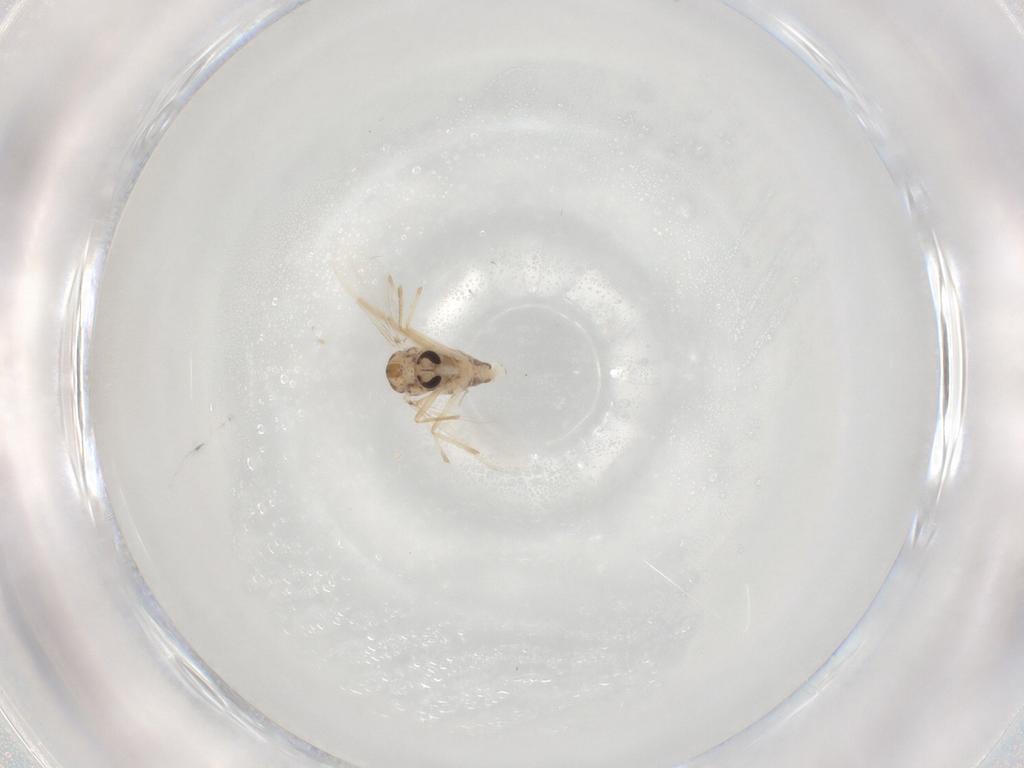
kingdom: Animalia
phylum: Arthropoda
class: Insecta
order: Diptera
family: Chironomidae
